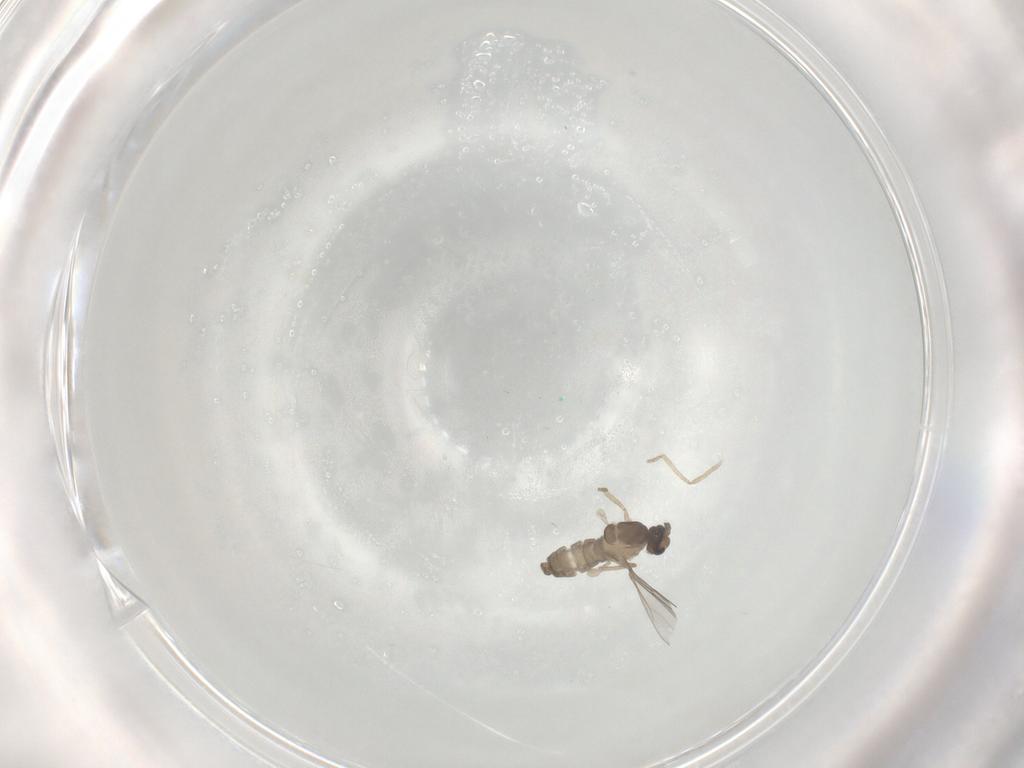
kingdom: Animalia
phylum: Arthropoda
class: Insecta
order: Diptera
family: Cecidomyiidae
